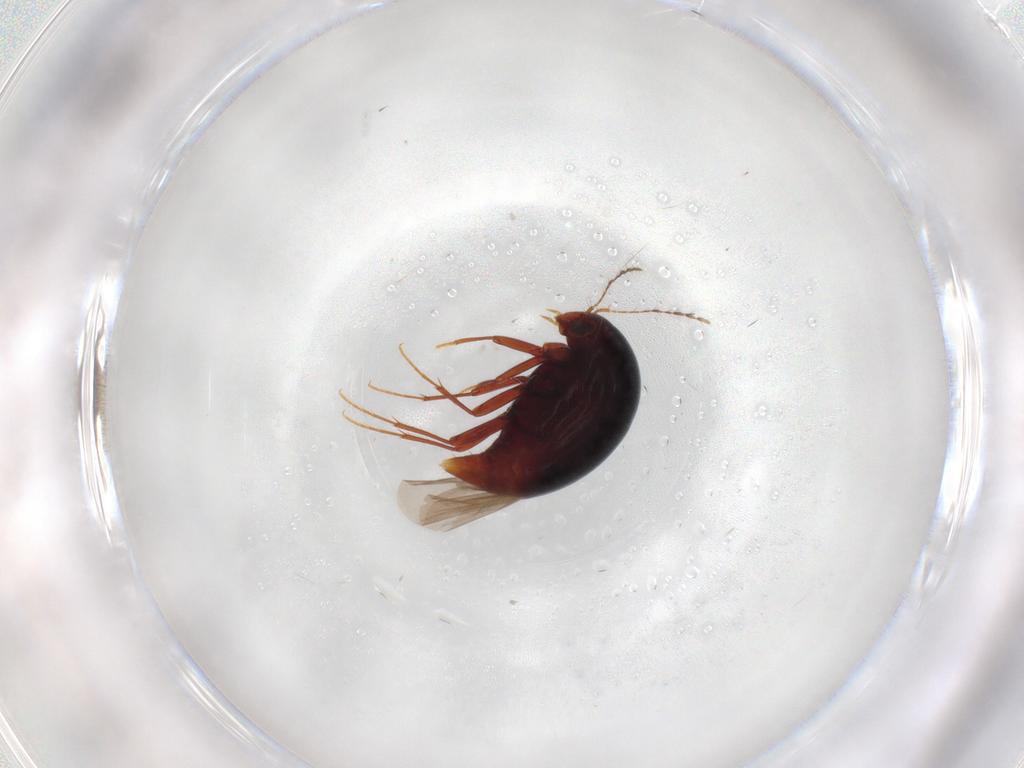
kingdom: Animalia
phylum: Arthropoda
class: Insecta
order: Coleoptera
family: Staphylinidae
